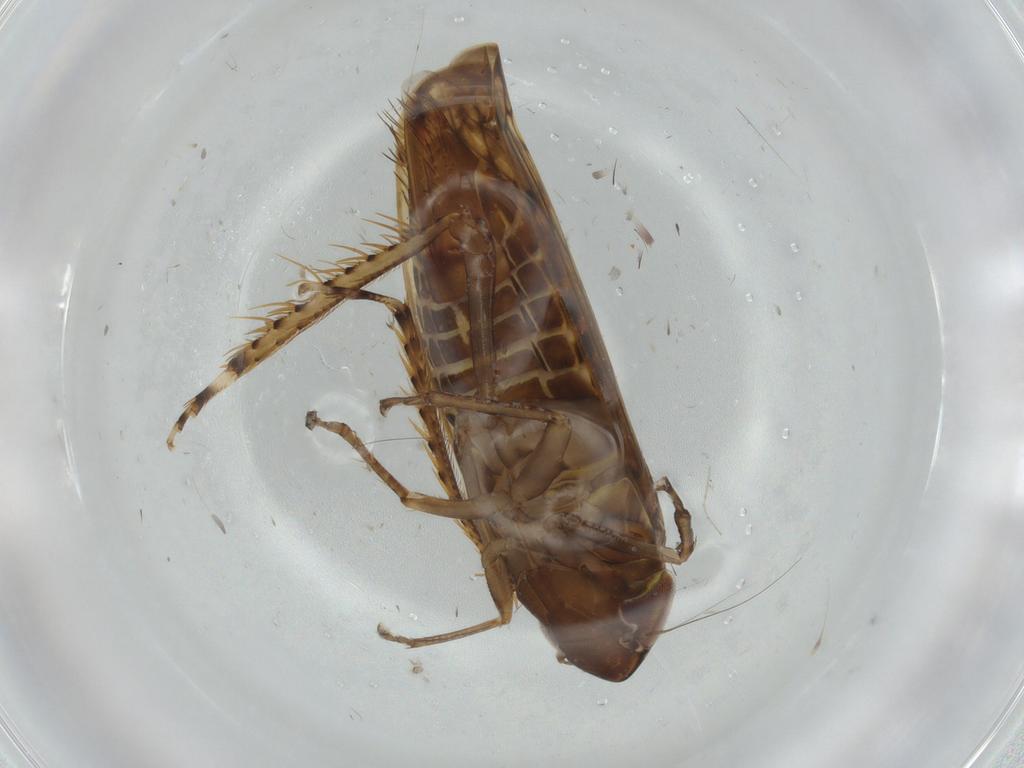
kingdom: Animalia
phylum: Arthropoda
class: Insecta
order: Hemiptera
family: Cicadellidae
